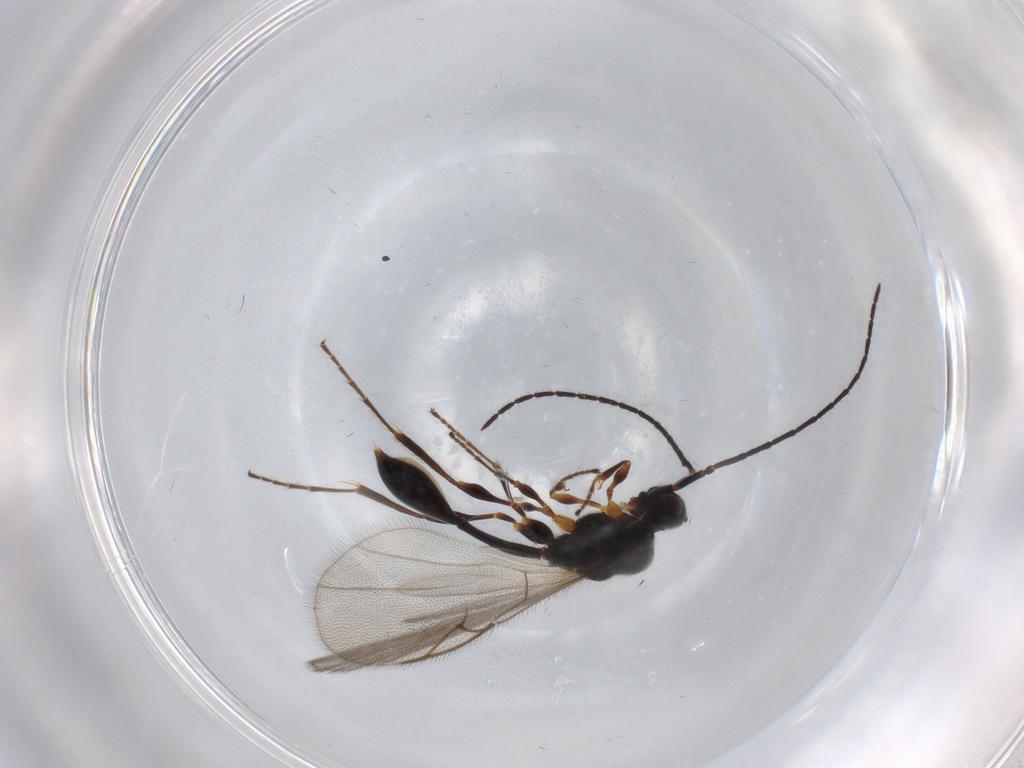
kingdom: Animalia
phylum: Arthropoda
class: Insecta
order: Hymenoptera
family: Diapriidae
